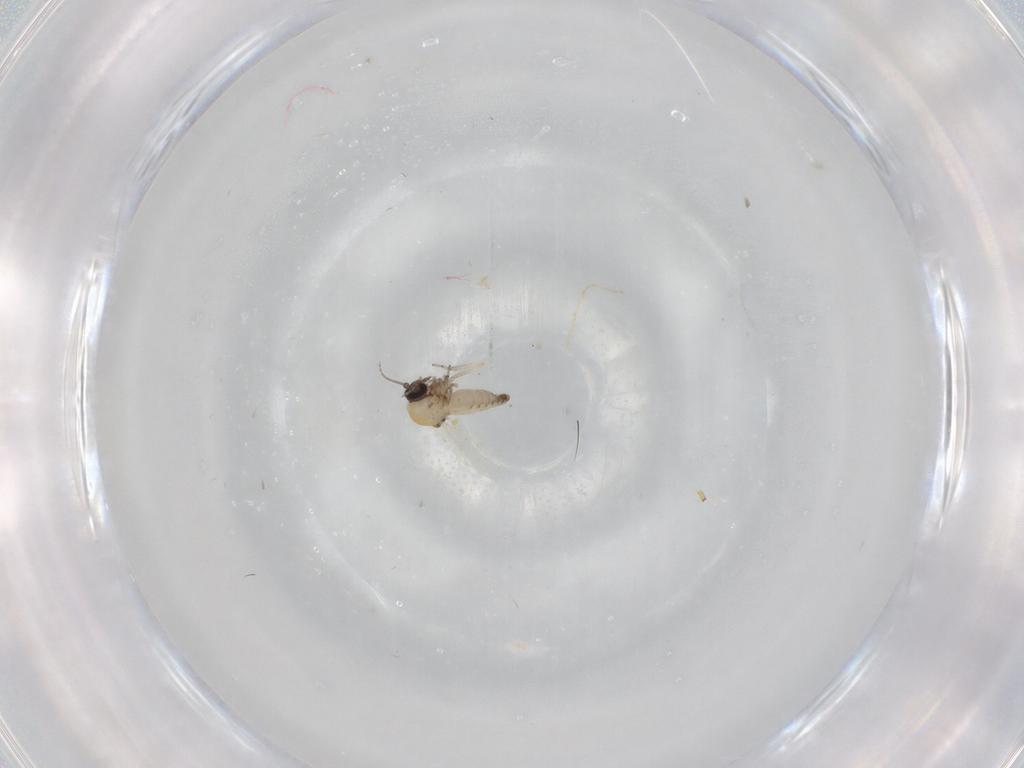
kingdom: Animalia
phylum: Arthropoda
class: Insecta
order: Diptera
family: Ceratopogonidae
